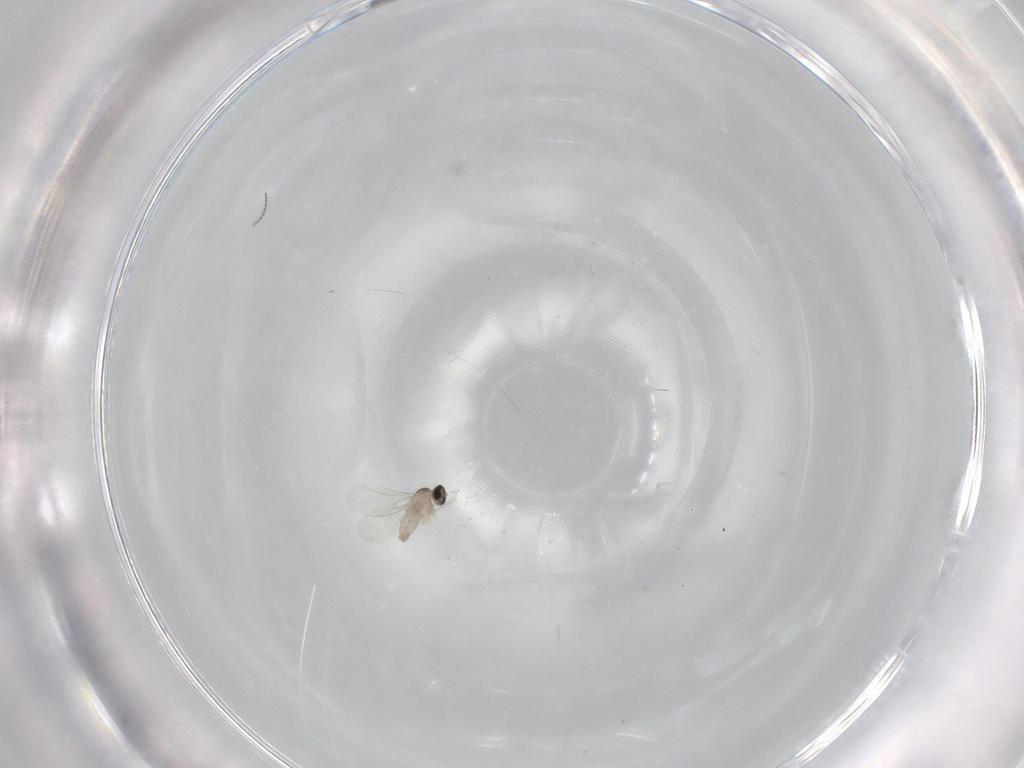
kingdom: Animalia
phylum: Arthropoda
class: Insecta
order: Diptera
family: Cecidomyiidae
